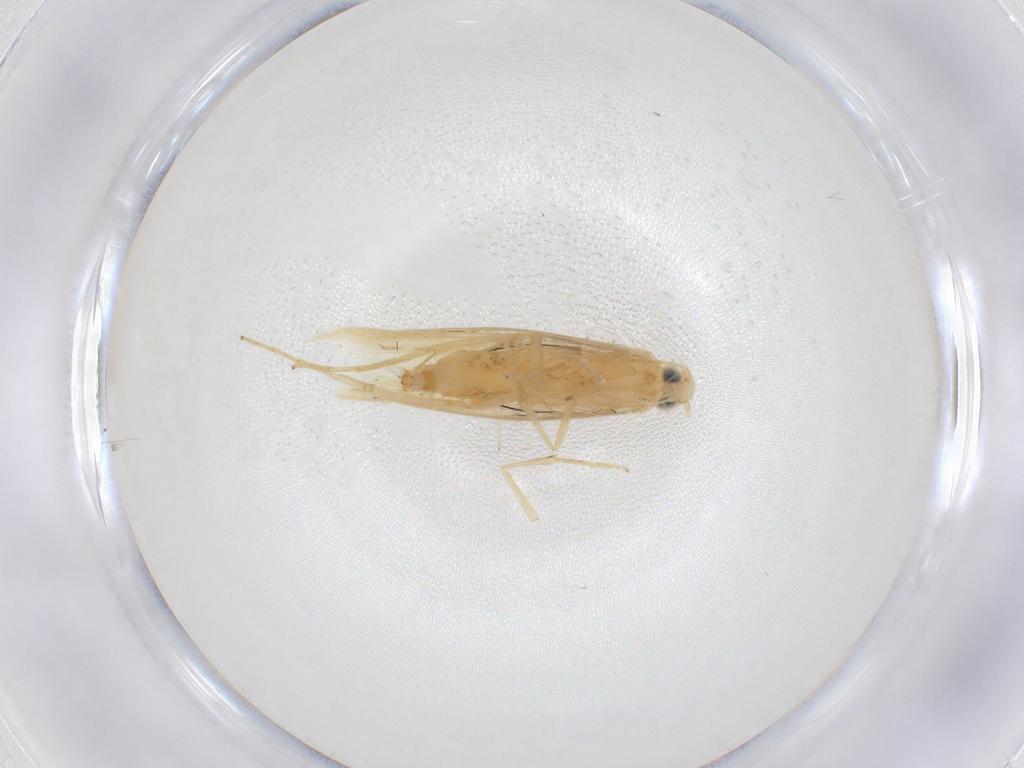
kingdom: Animalia
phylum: Arthropoda
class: Insecta
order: Lepidoptera
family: Tischeriidae
